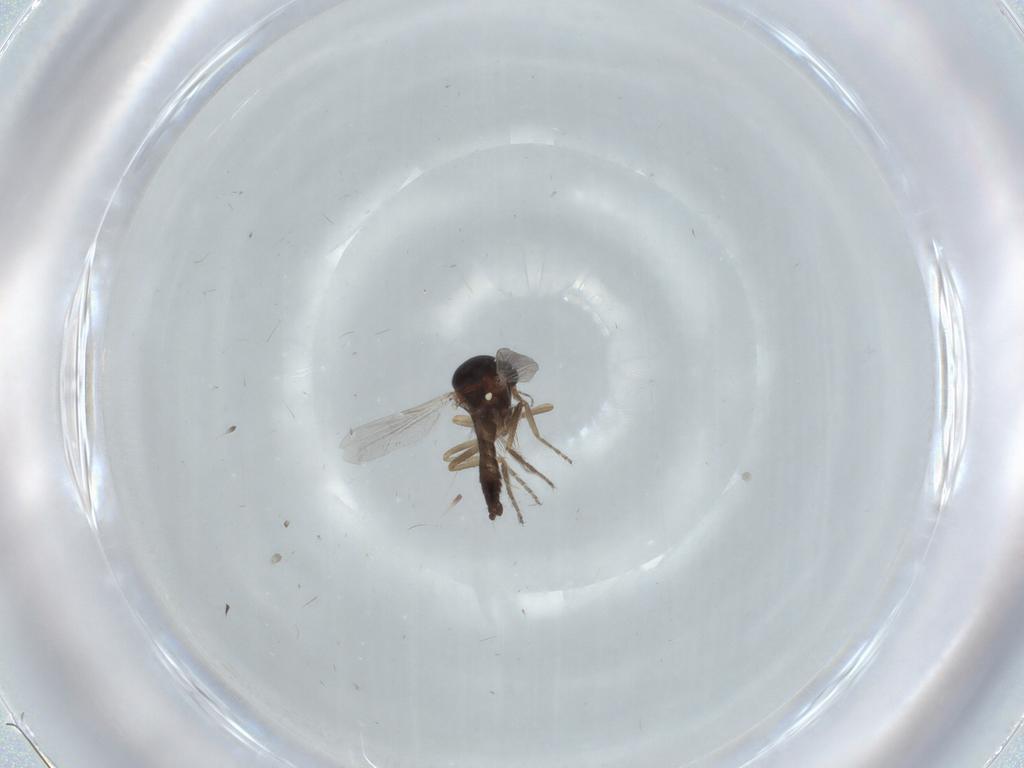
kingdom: Animalia
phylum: Arthropoda
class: Insecta
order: Diptera
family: Ceratopogonidae
